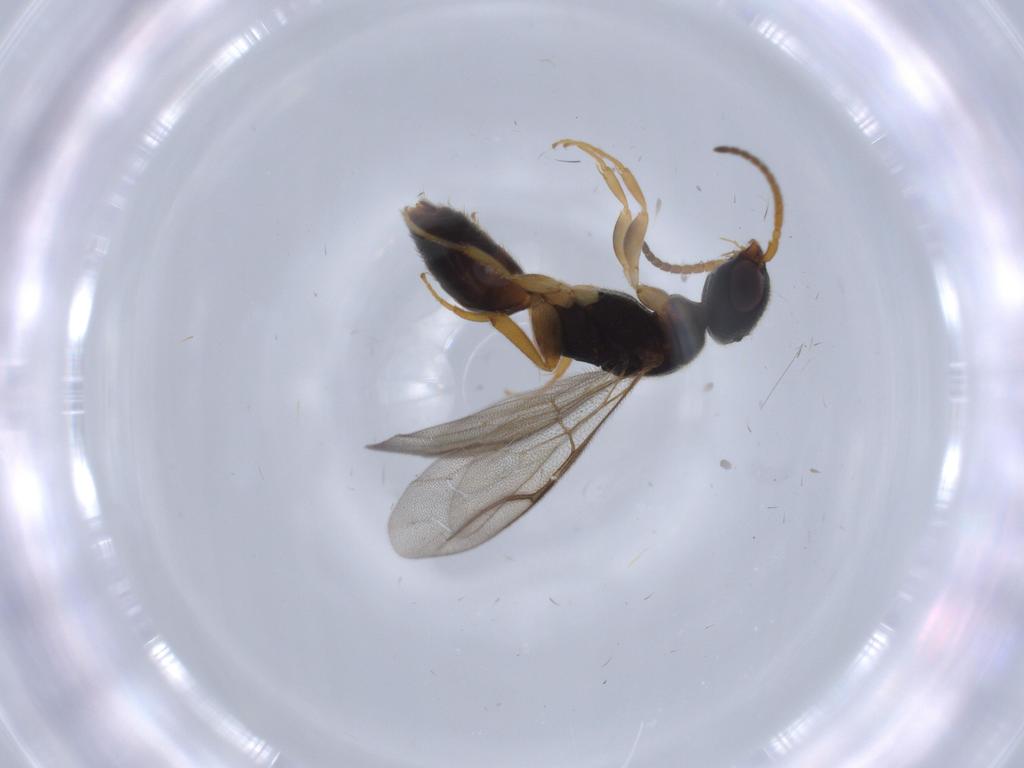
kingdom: Animalia
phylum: Arthropoda
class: Insecta
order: Hymenoptera
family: Bethylidae
